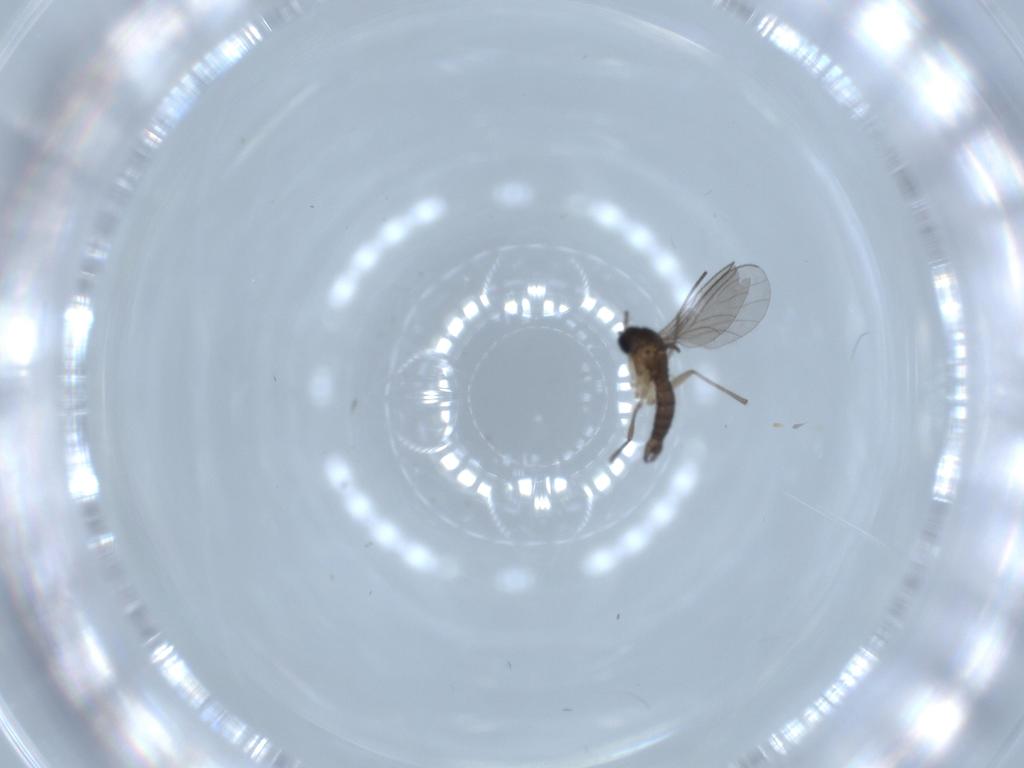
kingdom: Animalia
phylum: Arthropoda
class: Insecta
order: Diptera
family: Sciaridae
